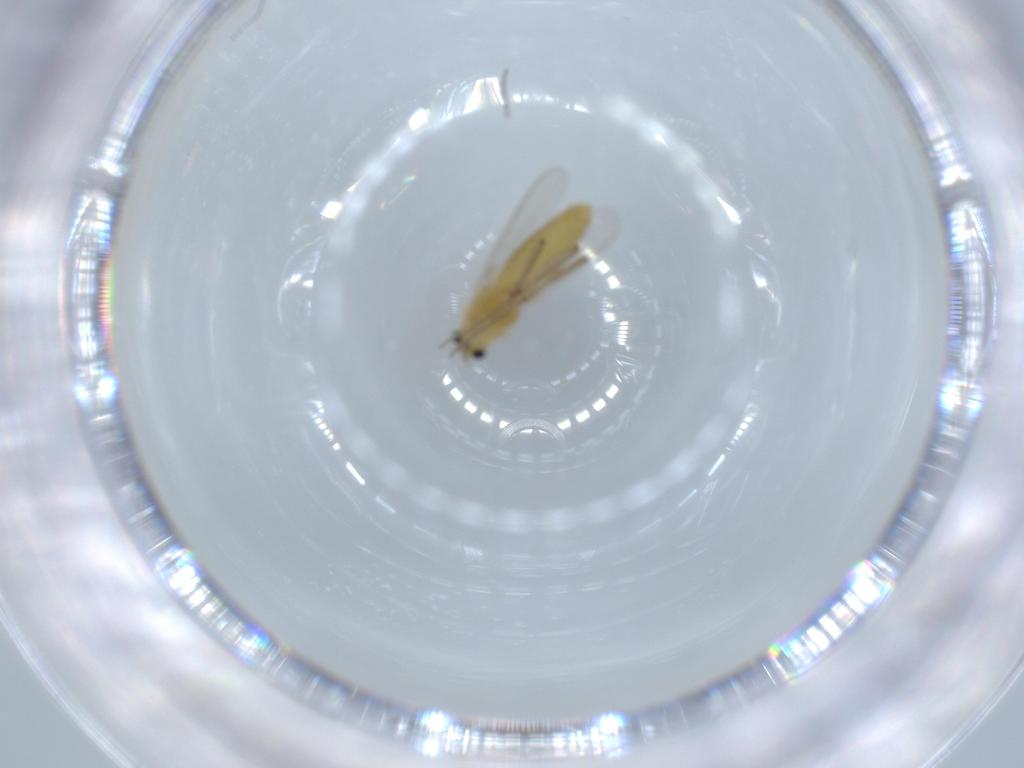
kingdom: Animalia
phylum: Arthropoda
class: Insecta
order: Diptera
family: Chironomidae
